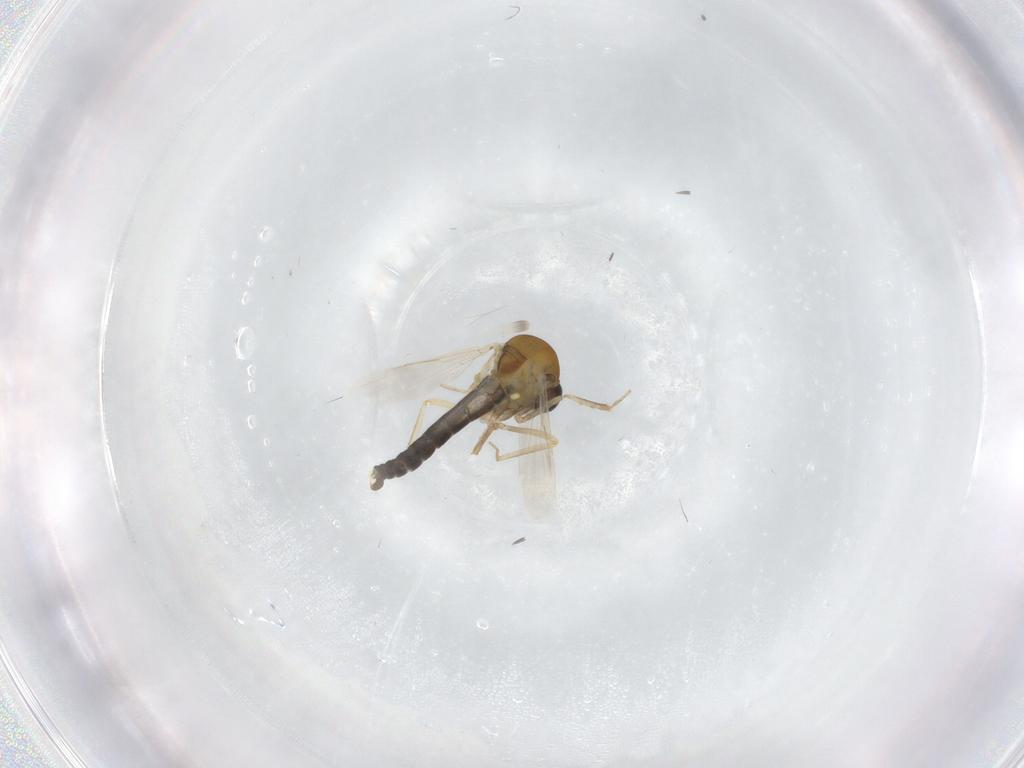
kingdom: Animalia
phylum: Arthropoda
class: Insecta
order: Diptera
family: Ceratopogonidae
